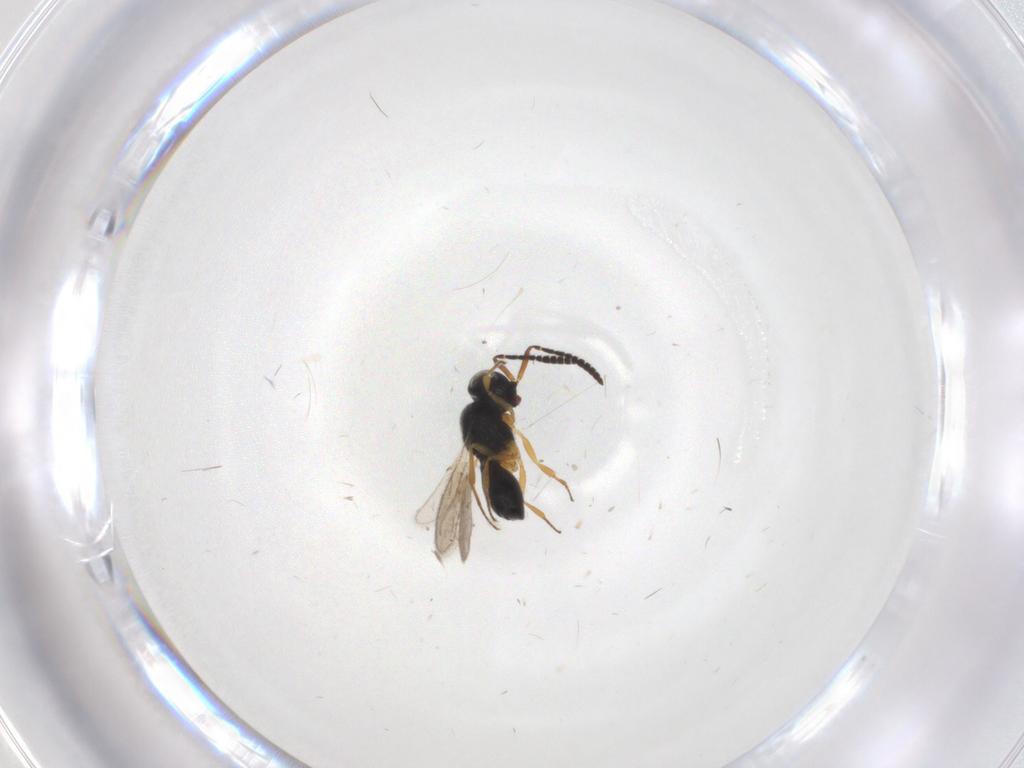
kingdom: Animalia
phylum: Arthropoda
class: Insecta
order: Hymenoptera
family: Scelionidae
